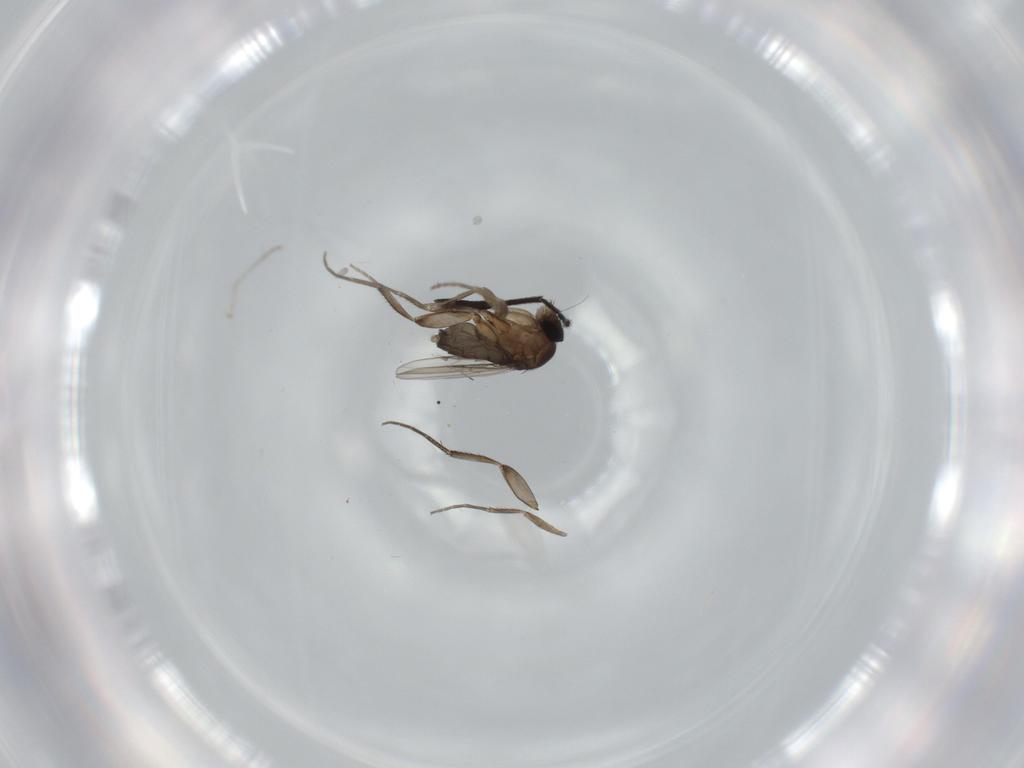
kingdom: Animalia
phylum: Arthropoda
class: Insecta
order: Diptera
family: Phoridae
